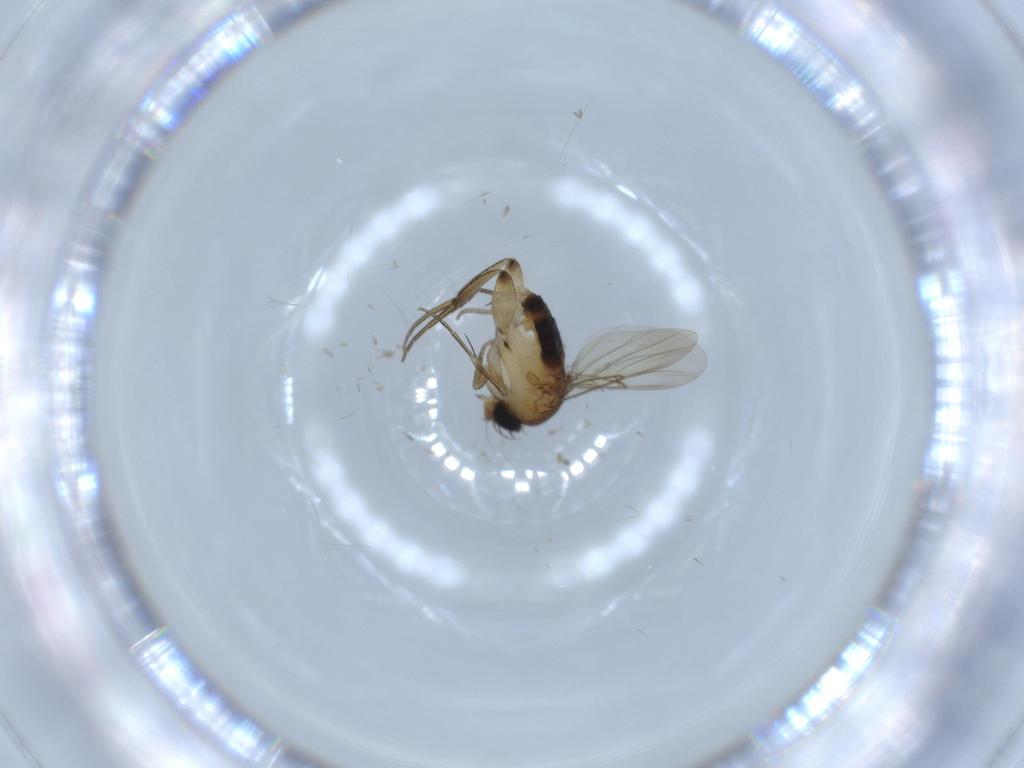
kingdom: Animalia
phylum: Arthropoda
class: Insecta
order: Diptera
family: Phoridae
